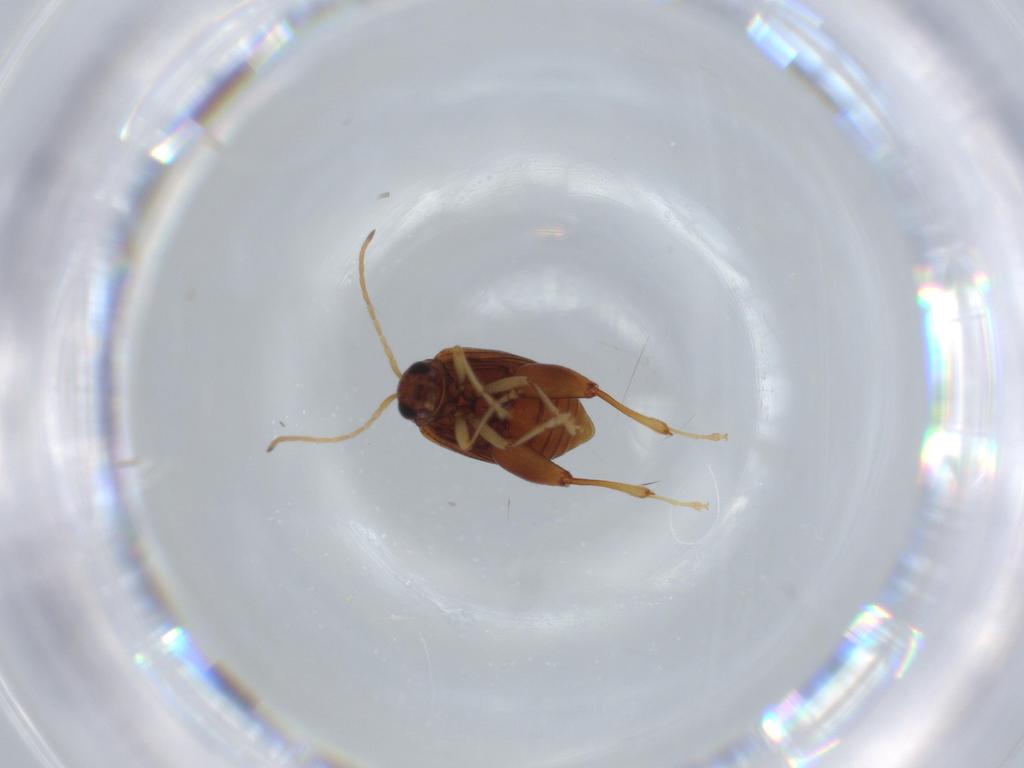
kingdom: Animalia
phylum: Arthropoda
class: Insecta
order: Coleoptera
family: Chrysomelidae
